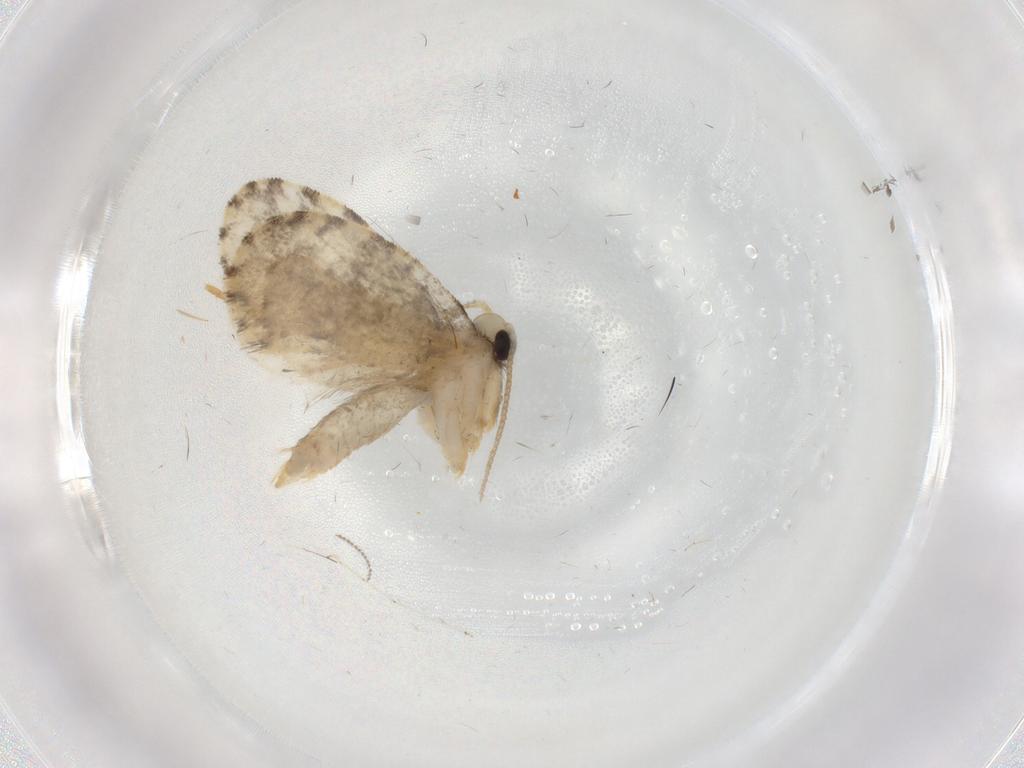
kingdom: Animalia
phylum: Arthropoda
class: Insecta
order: Lepidoptera
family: Psychidae
